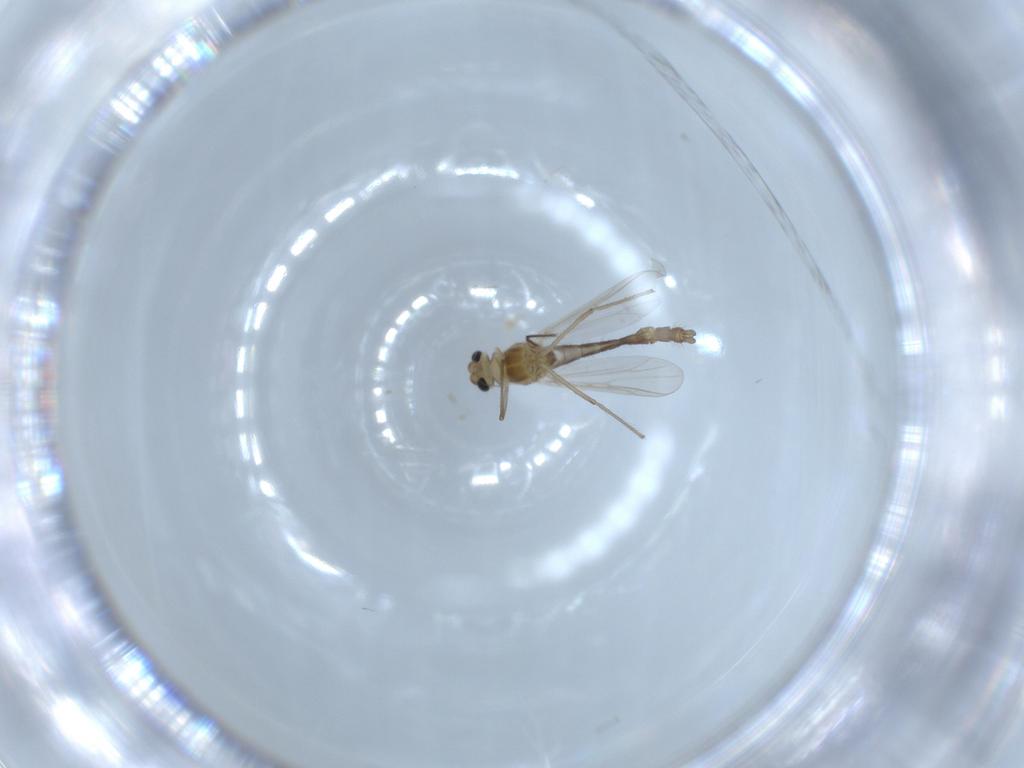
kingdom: Animalia
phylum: Arthropoda
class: Insecta
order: Diptera
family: Chironomidae
